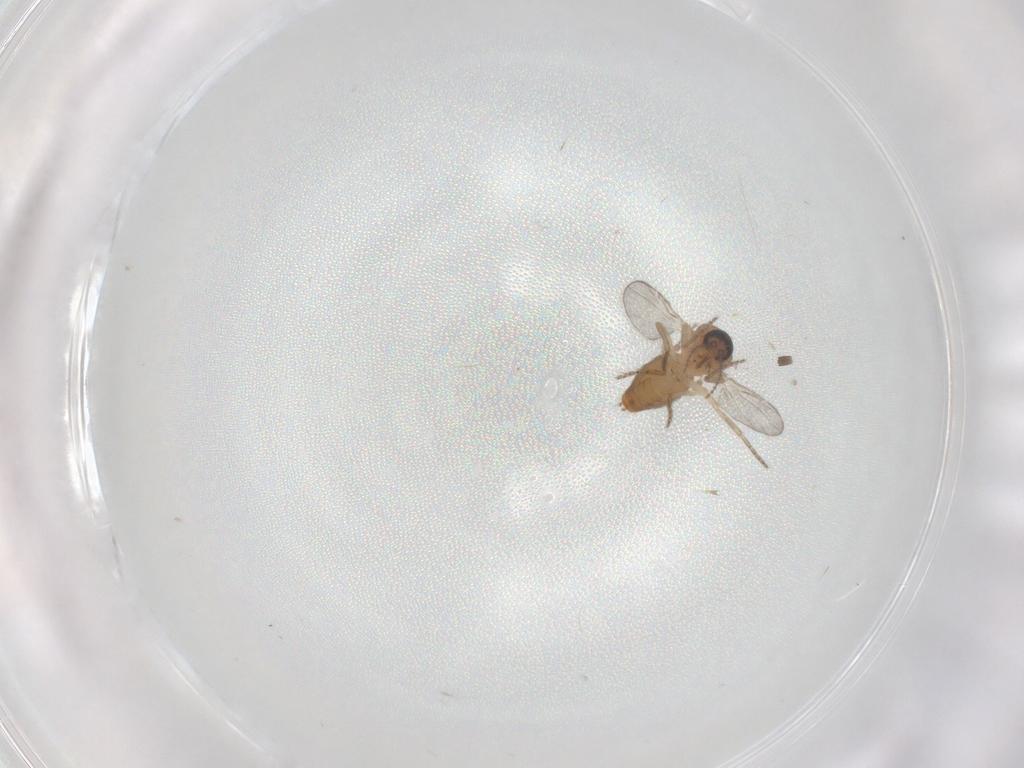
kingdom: Animalia
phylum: Arthropoda
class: Insecta
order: Diptera
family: Ceratopogonidae
